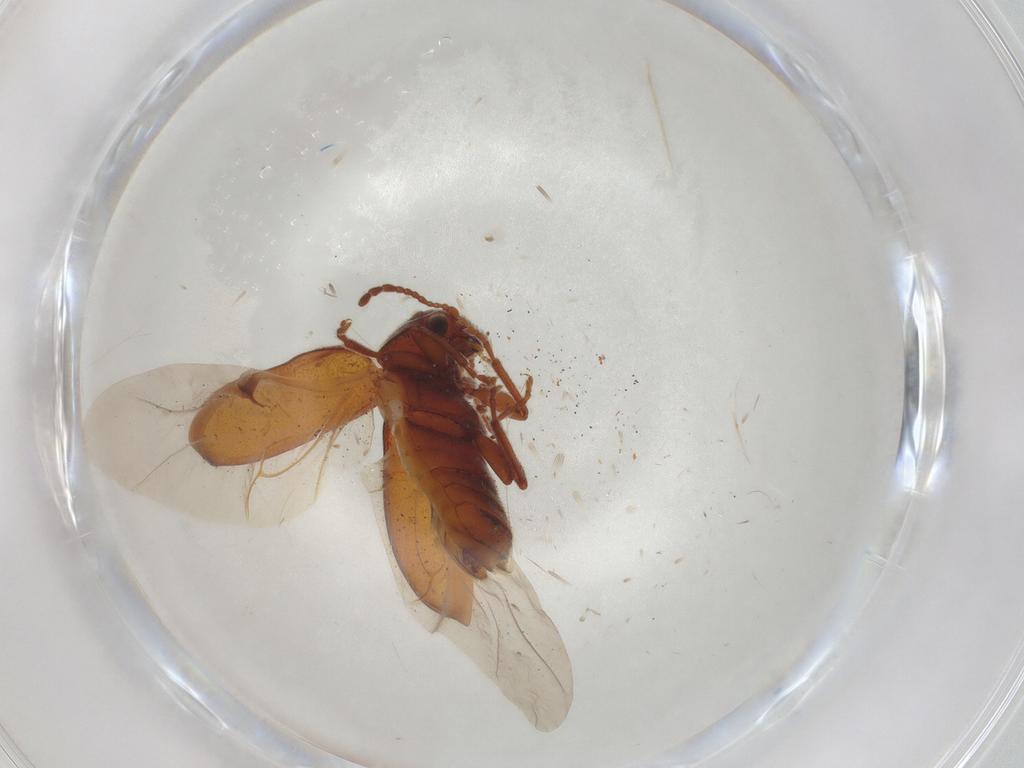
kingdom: Animalia
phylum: Arthropoda
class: Insecta
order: Coleoptera
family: Ptinidae
